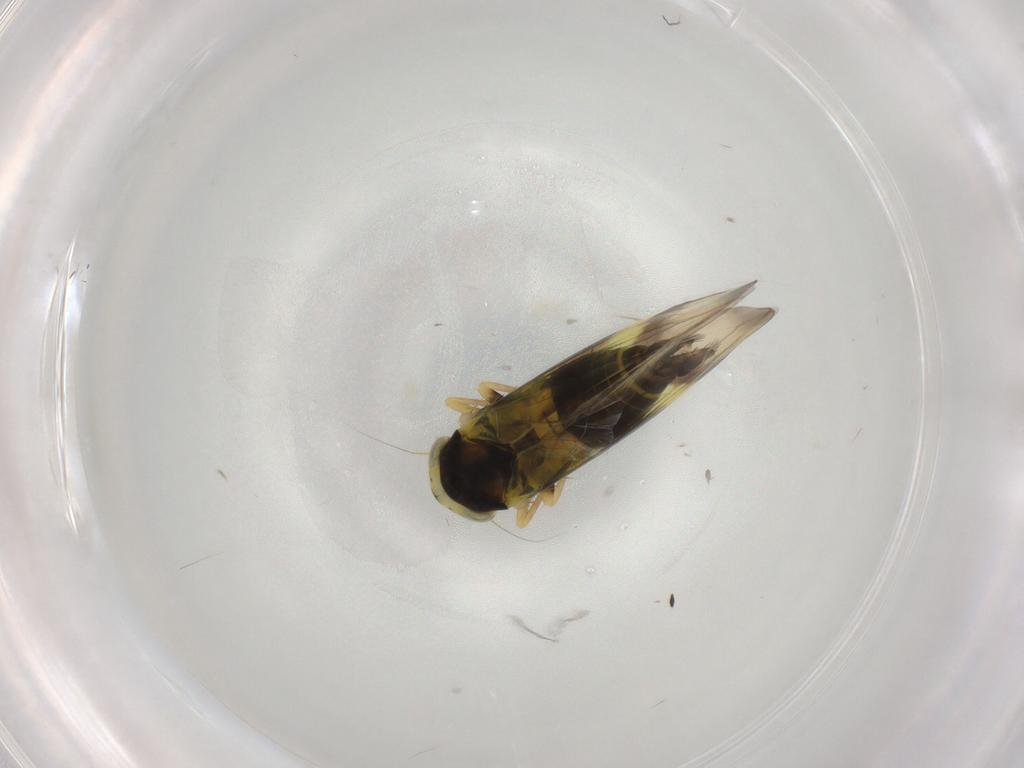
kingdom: Animalia
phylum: Arthropoda
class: Insecta
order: Hemiptera
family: Cicadellidae
